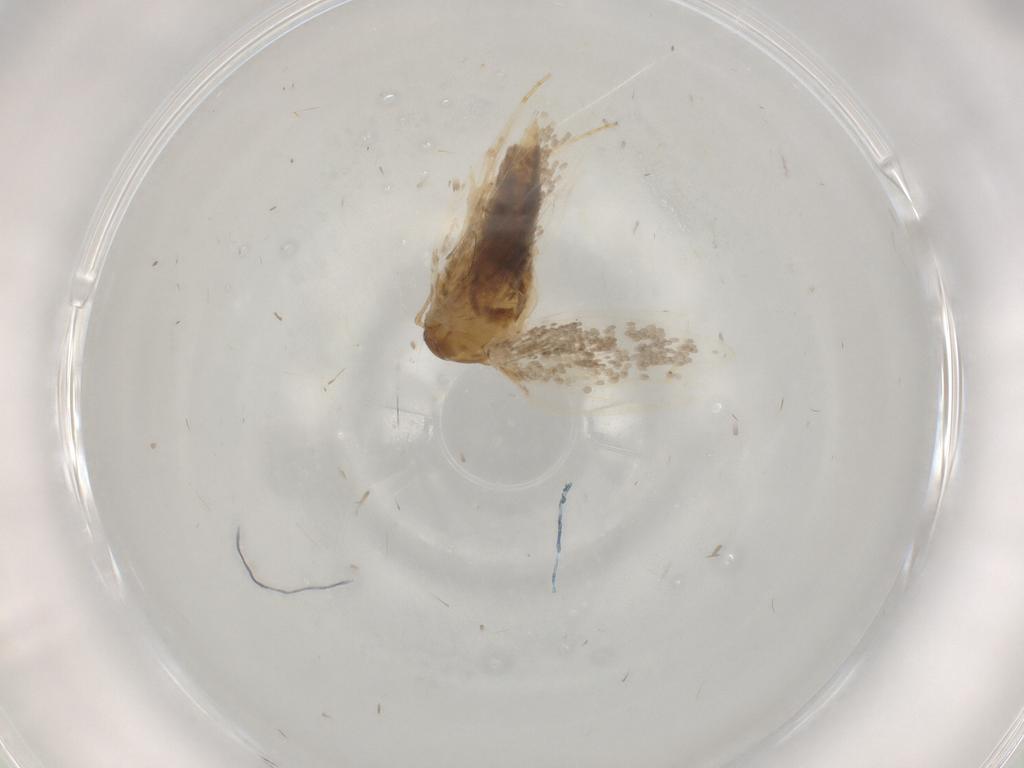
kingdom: Animalia
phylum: Arthropoda
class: Insecta
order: Lepidoptera
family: Oecophoridae
